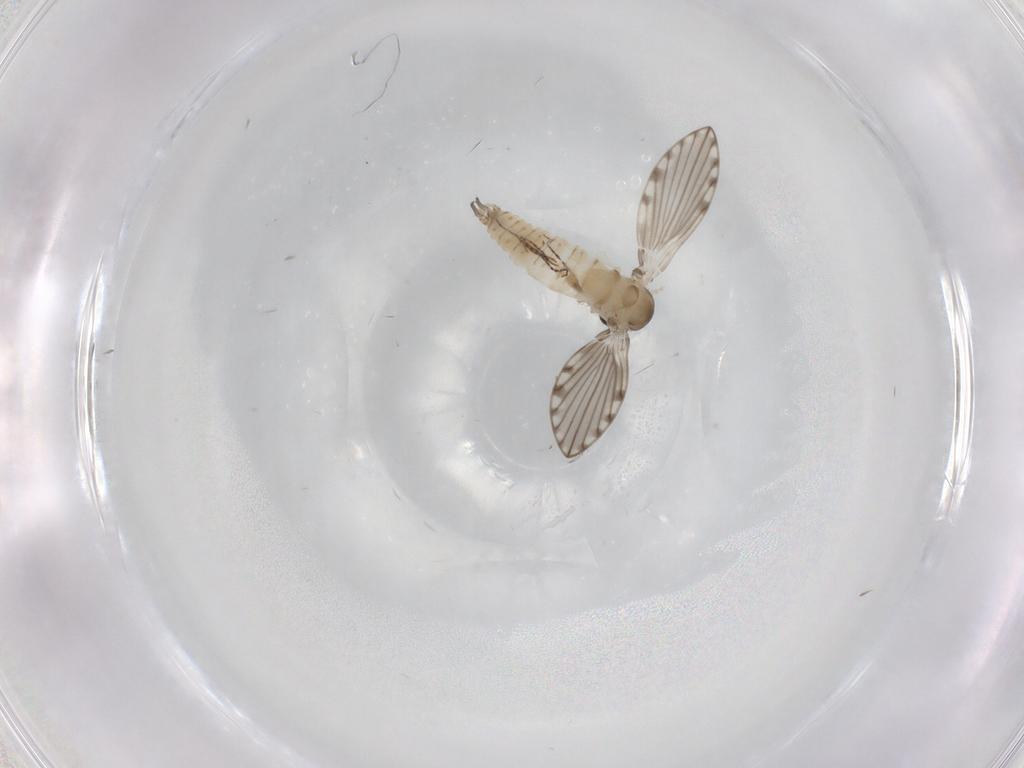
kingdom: Animalia
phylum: Arthropoda
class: Insecta
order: Diptera
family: Phoridae
